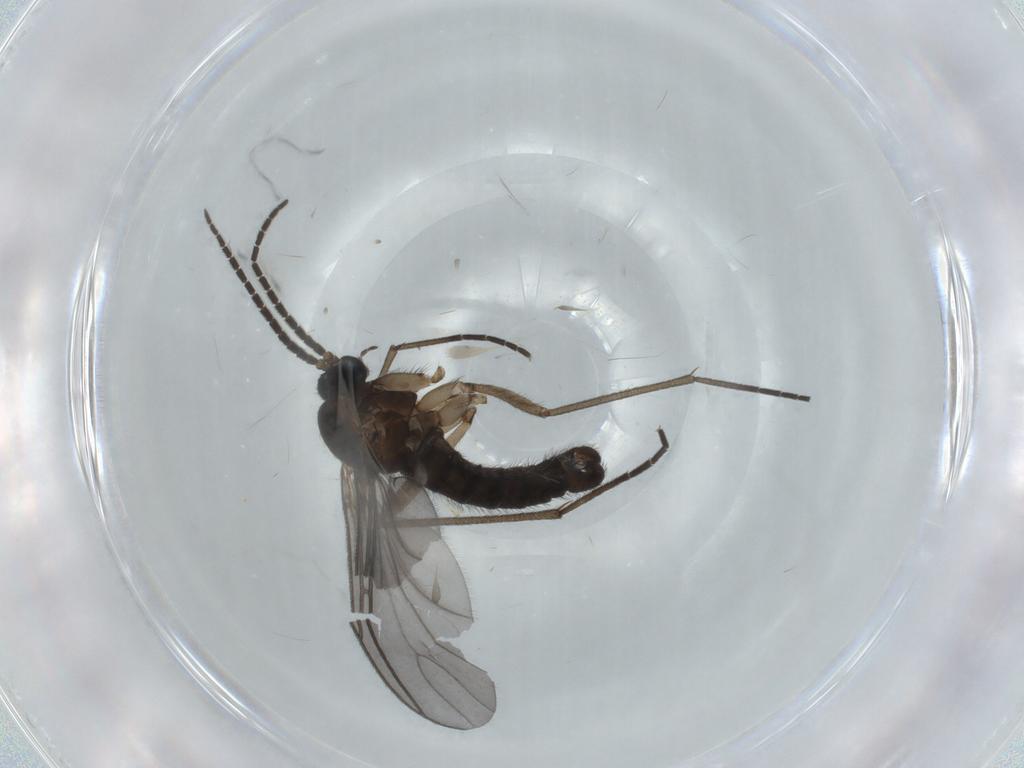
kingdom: Animalia
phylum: Arthropoda
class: Insecta
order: Diptera
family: Sciaridae
